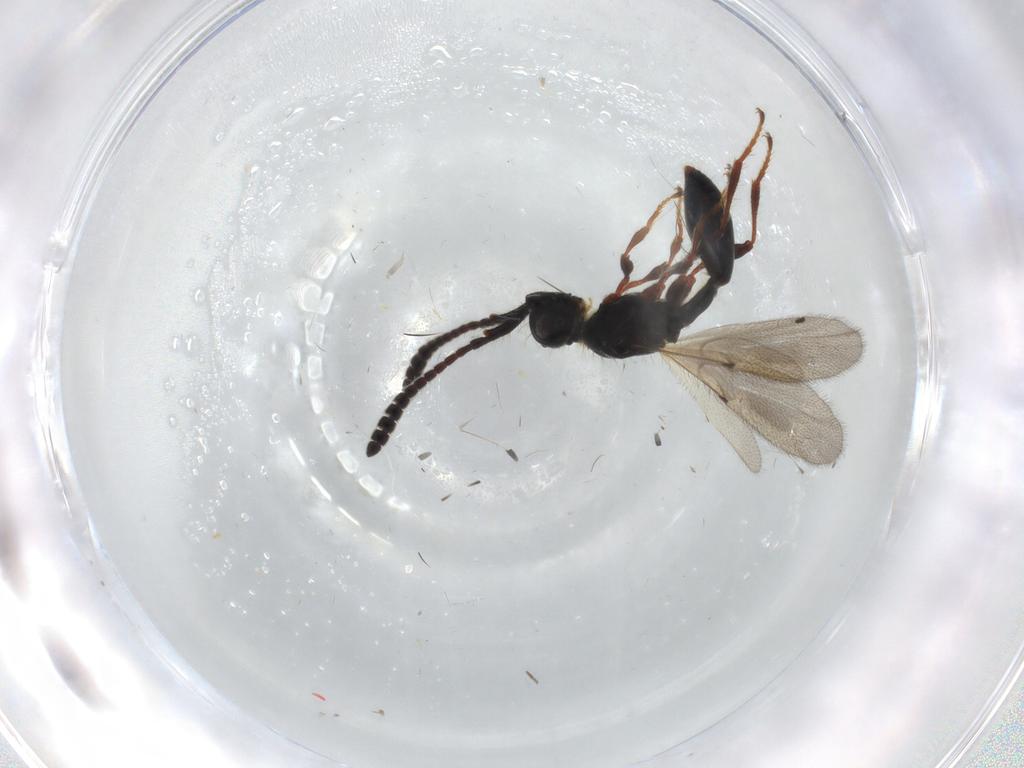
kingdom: Animalia
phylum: Arthropoda
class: Insecta
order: Hymenoptera
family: Diapriidae
